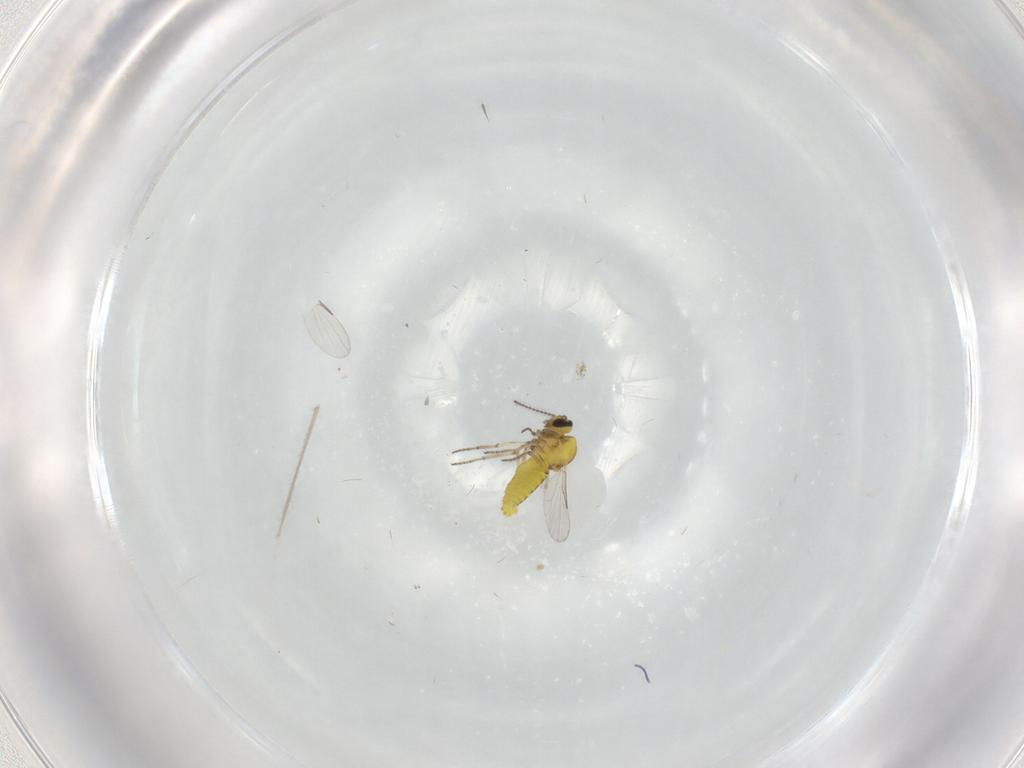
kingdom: Animalia
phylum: Arthropoda
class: Insecta
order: Diptera
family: Ceratopogonidae
